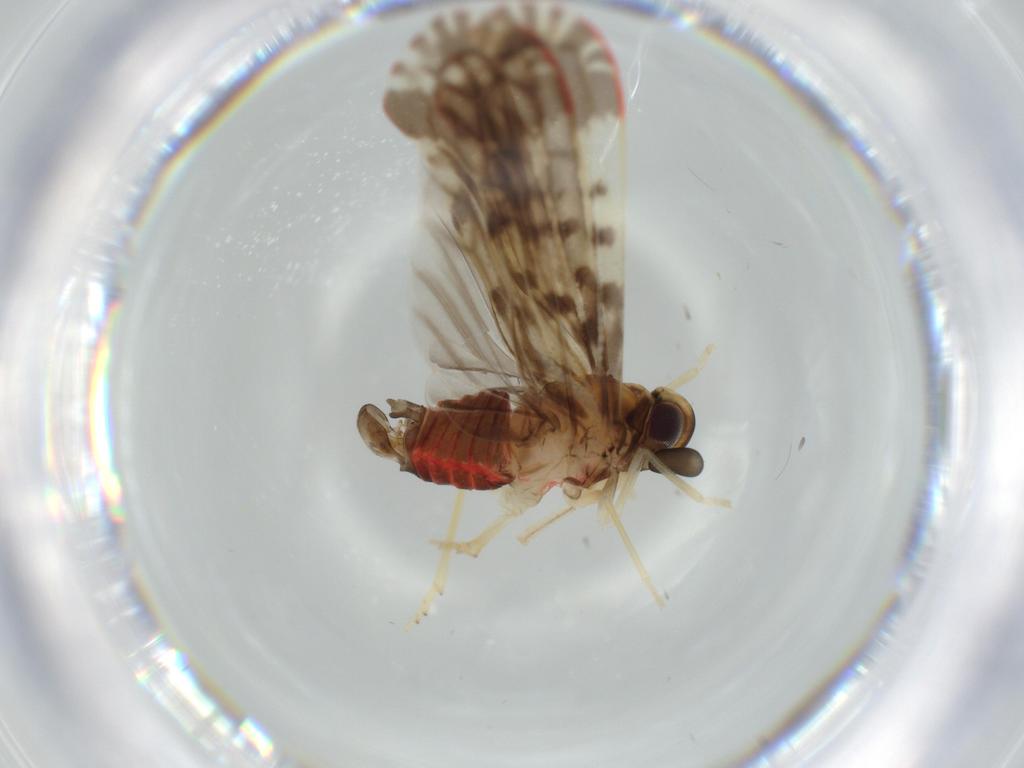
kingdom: Animalia
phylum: Arthropoda
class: Insecta
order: Hemiptera
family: Derbidae
